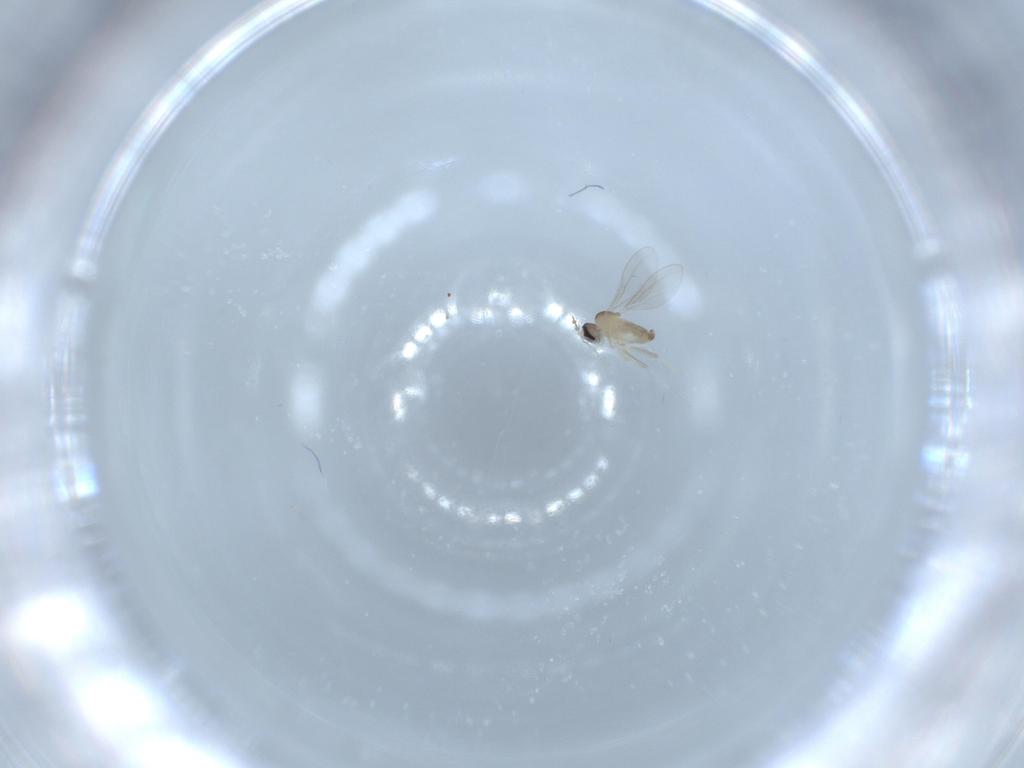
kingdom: Animalia
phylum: Arthropoda
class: Insecta
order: Diptera
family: Cecidomyiidae
